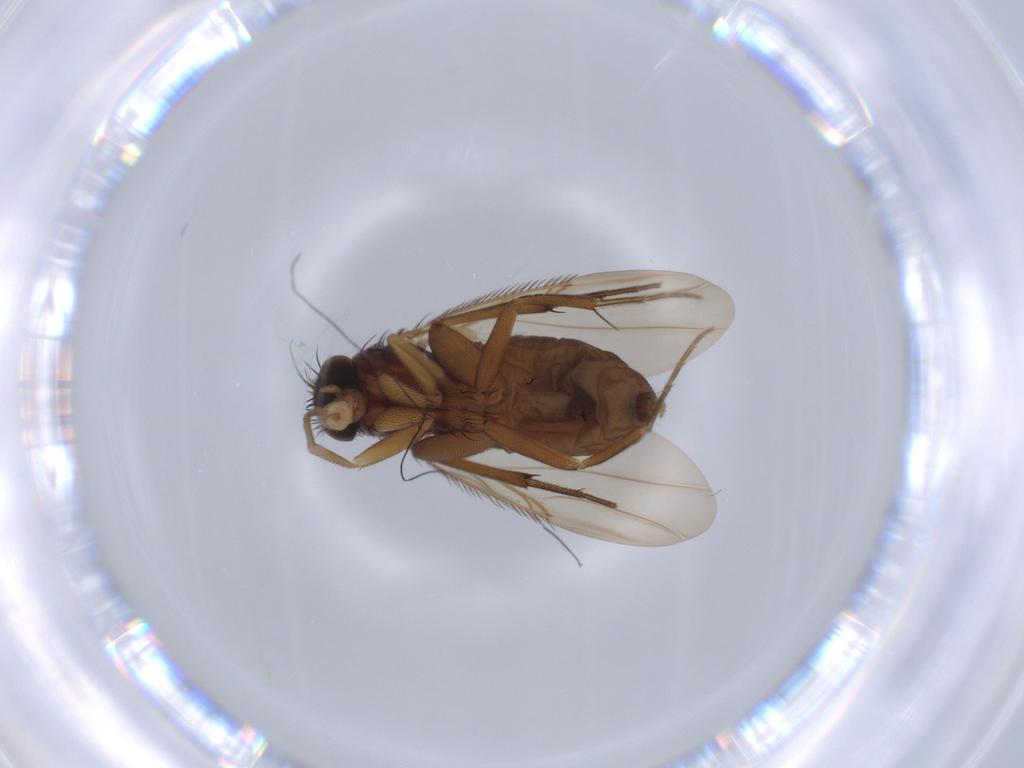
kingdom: Animalia
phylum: Arthropoda
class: Insecta
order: Diptera
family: Phoridae
